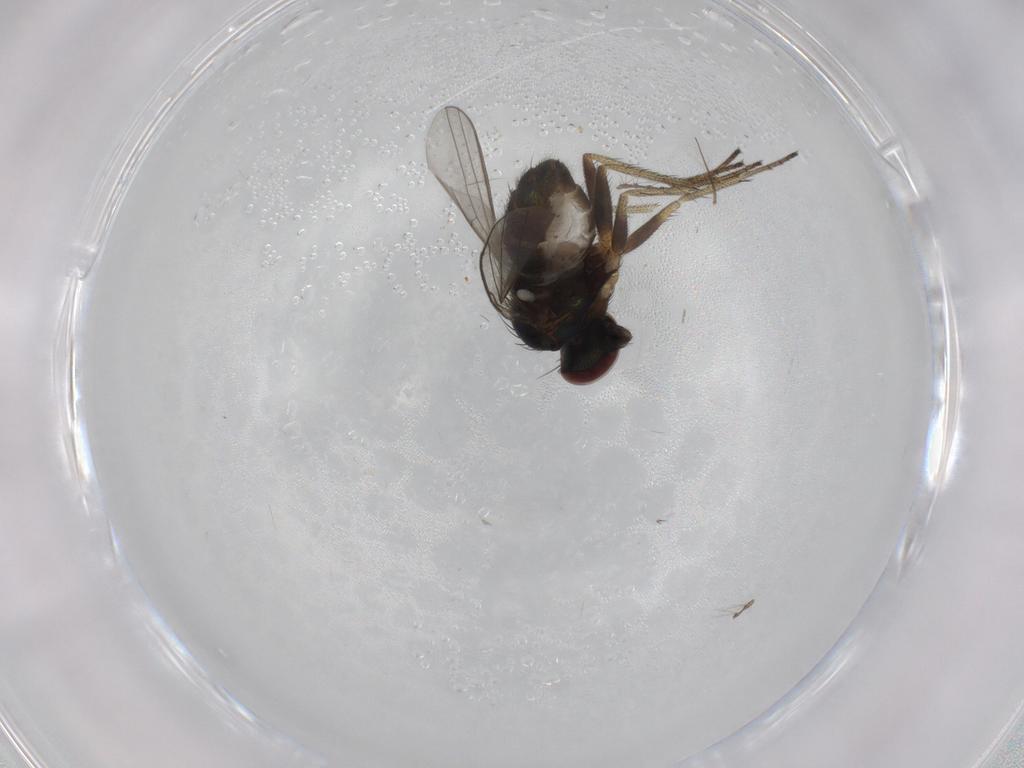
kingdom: Animalia
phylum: Arthropoda
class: Insecta
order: Diptera
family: Dolichopodidae
